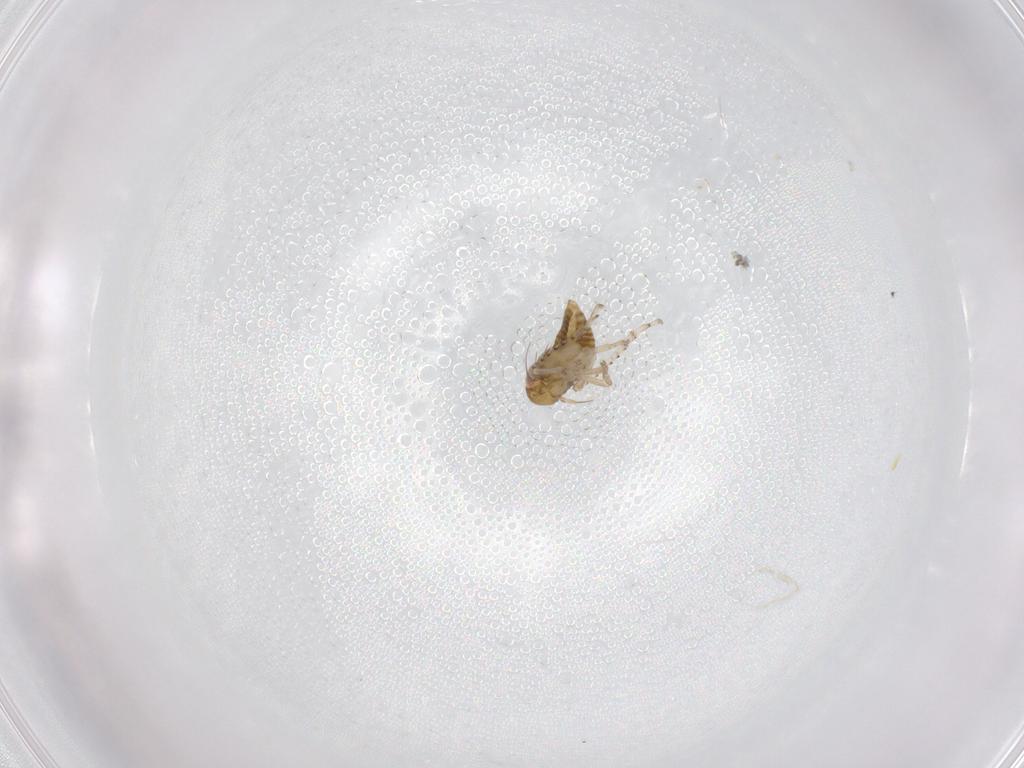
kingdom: Animalia
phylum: Arthropoda
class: Insecta
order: Hemiptera
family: Cicadellidae
